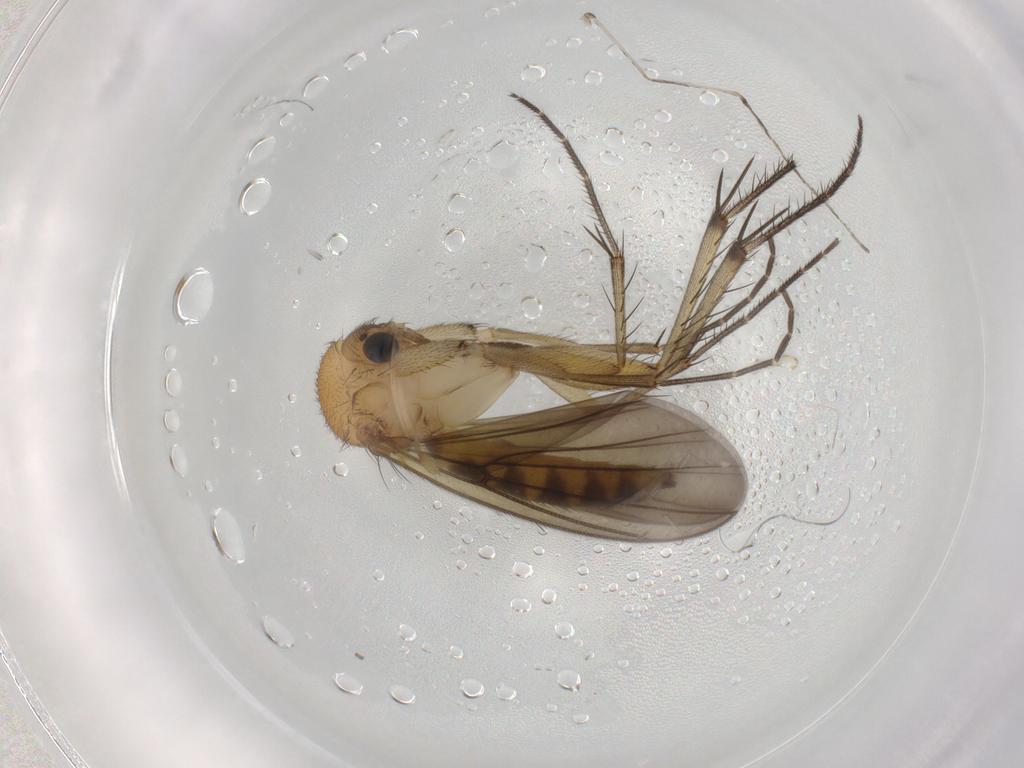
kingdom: Animalia
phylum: Arthropoda
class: Insecta
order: Diptera
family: Mycetophilidae
